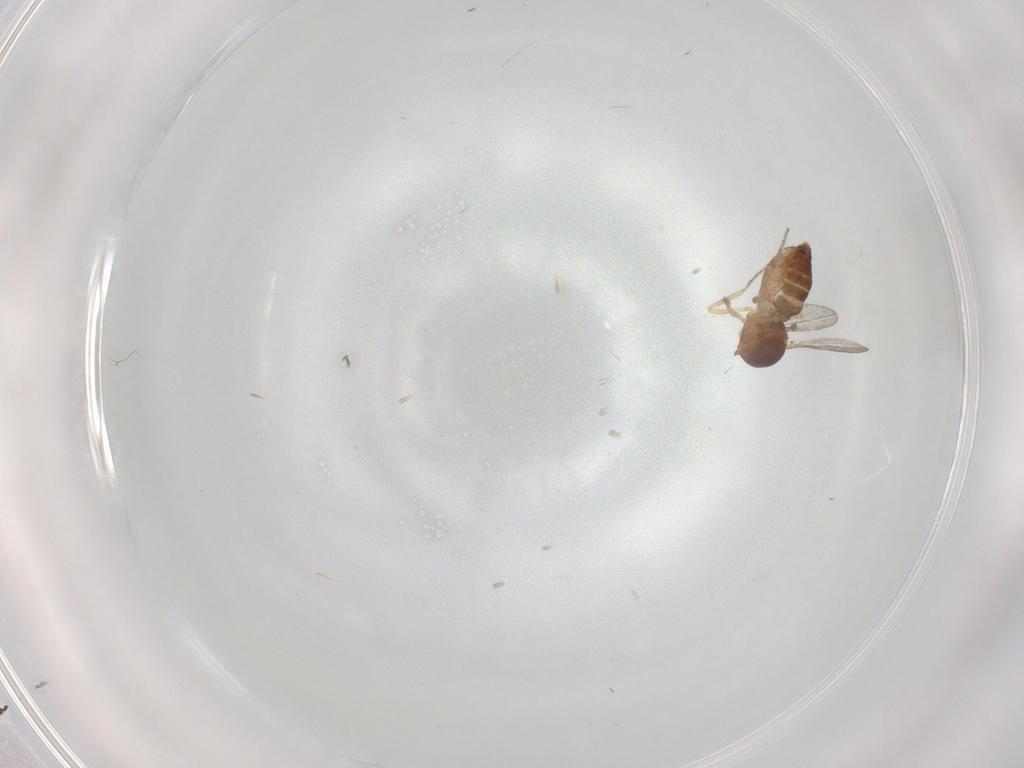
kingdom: Animalia
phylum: Arthropoda
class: Insecta
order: Diptera
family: Ceratopogonidae
